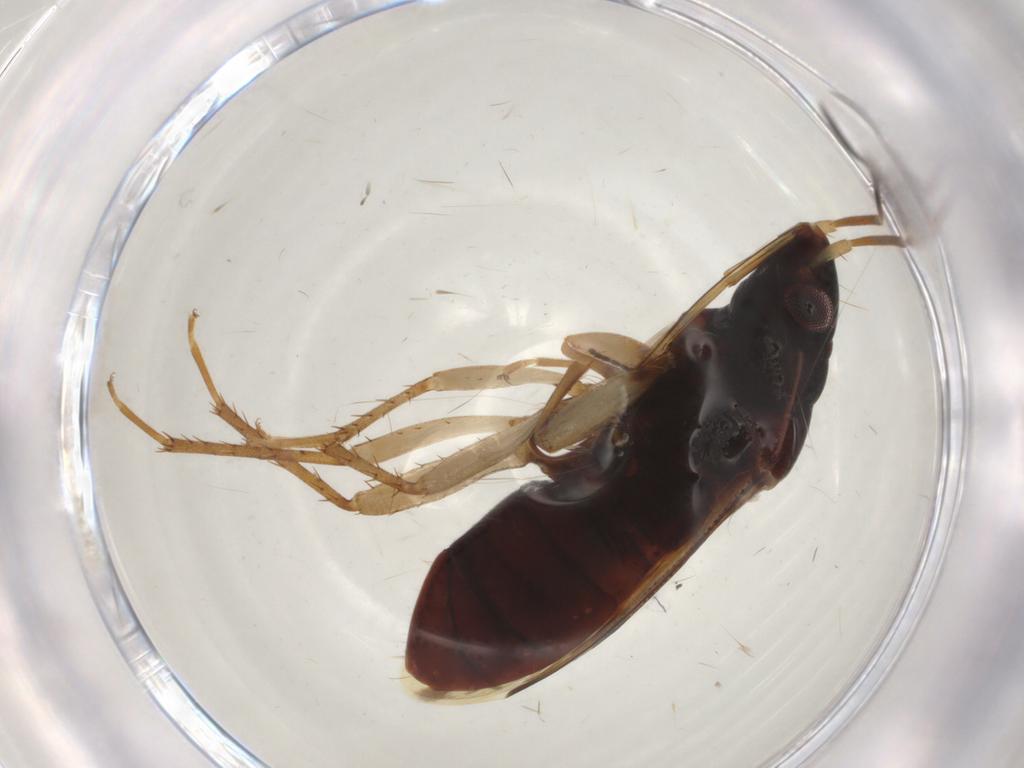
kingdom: Animalia
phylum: Arthropoda
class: Insecta
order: Hemiptera
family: Rhyparochromidae
